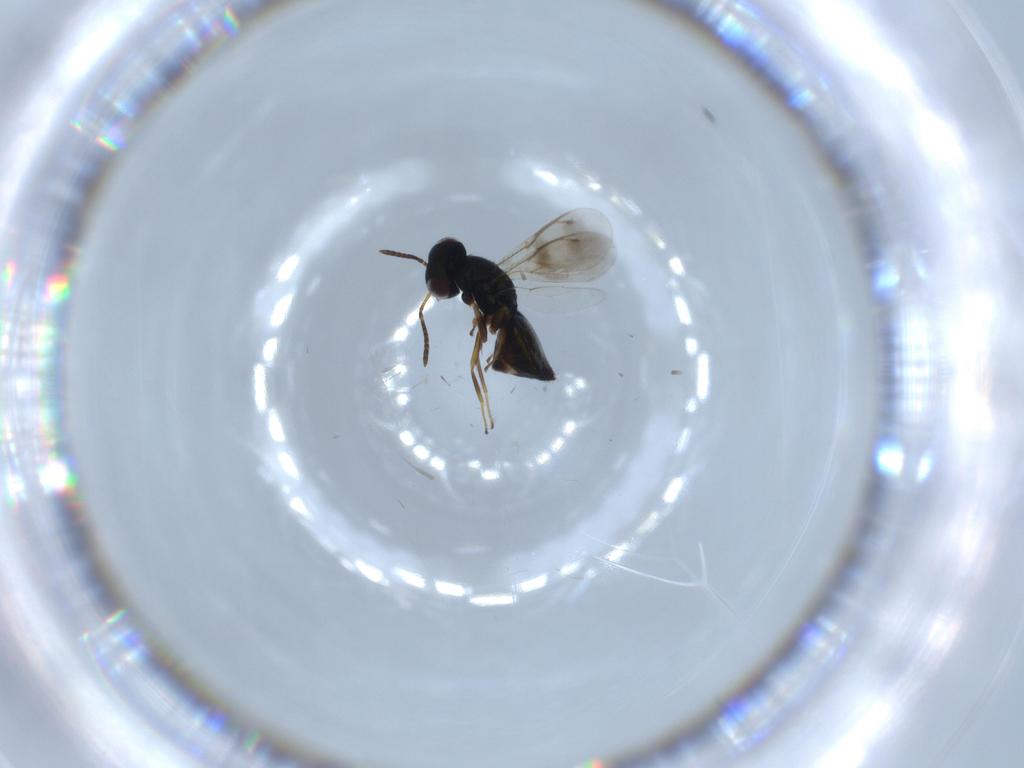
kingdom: Animalia
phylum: Arthropoda
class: Insecta
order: Hymenoptera
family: Pteromalidae
